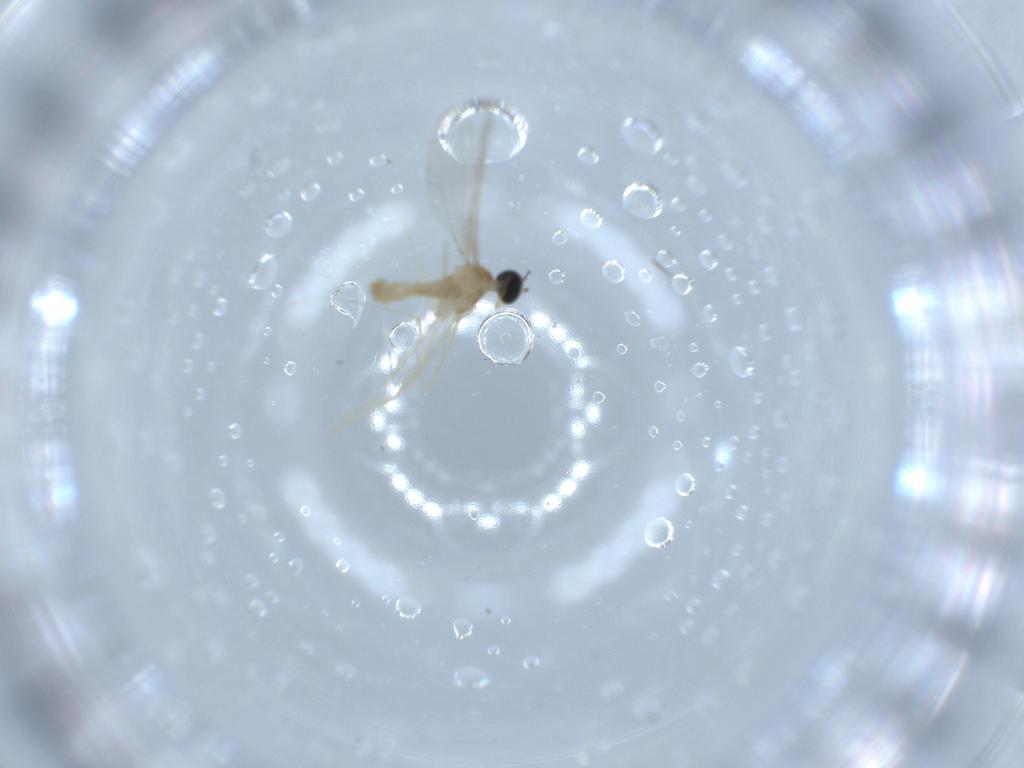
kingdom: Animalia
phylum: Arthropoda
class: Insecta
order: Diptera
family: Cecidomyiidae
